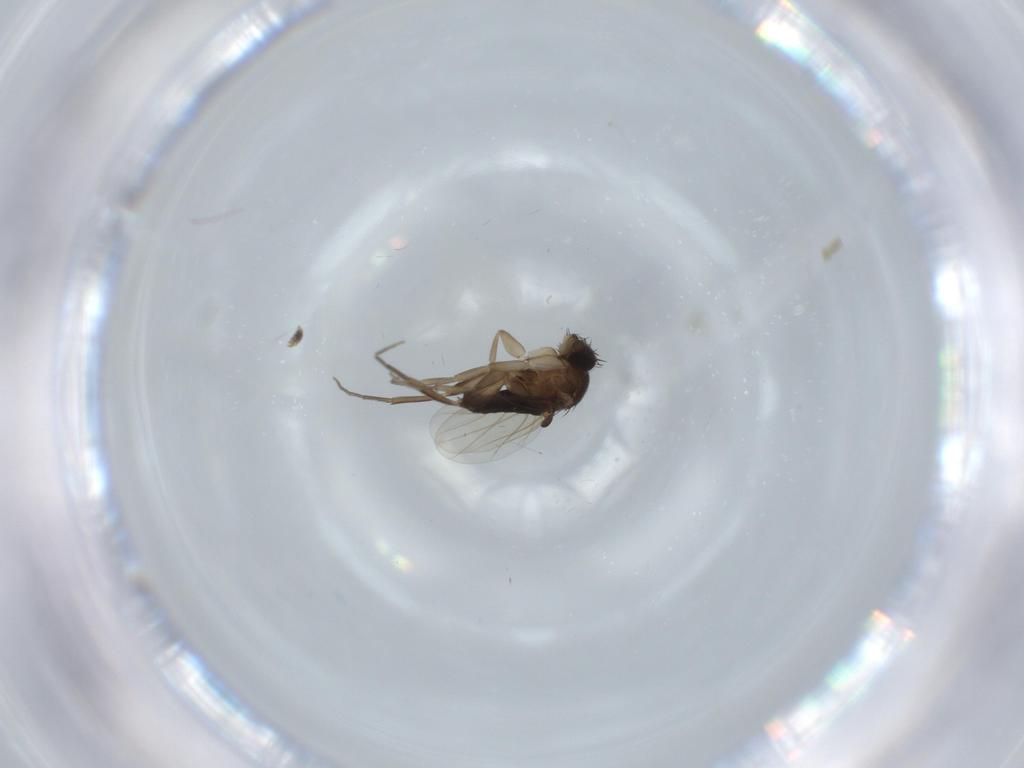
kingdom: Animalia
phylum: Arthropoda
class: Insecta
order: Diptera
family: Phoridae
